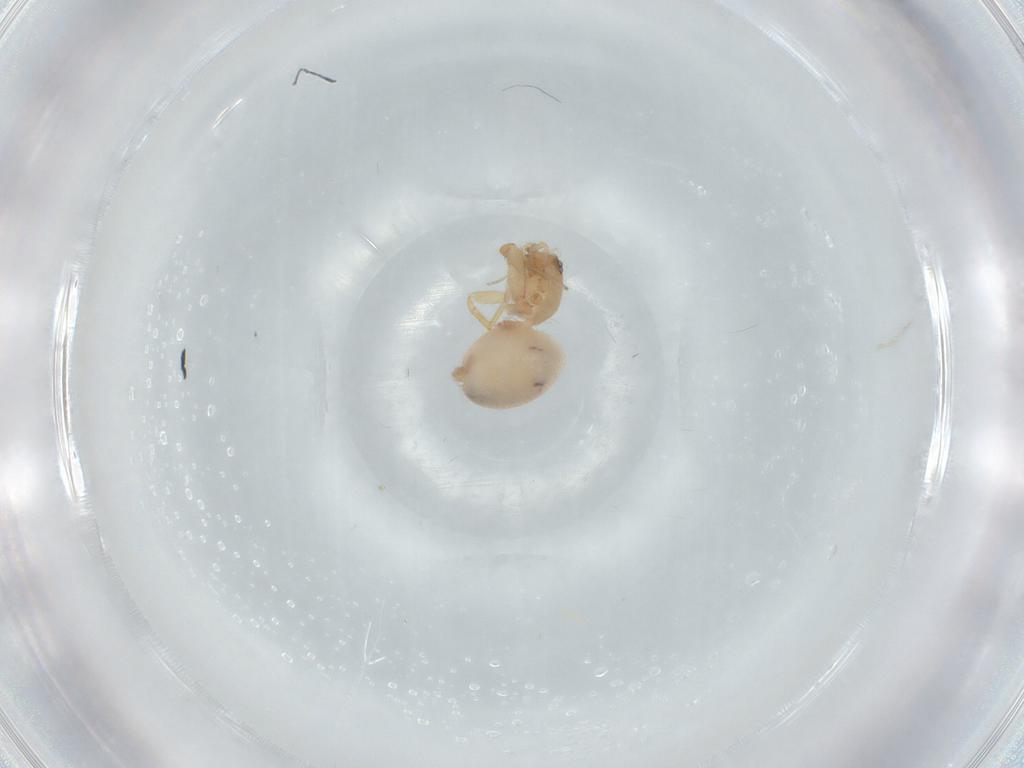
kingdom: Animalia
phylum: Arthropoda
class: Arachnida
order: Araneae
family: Oonopidae
